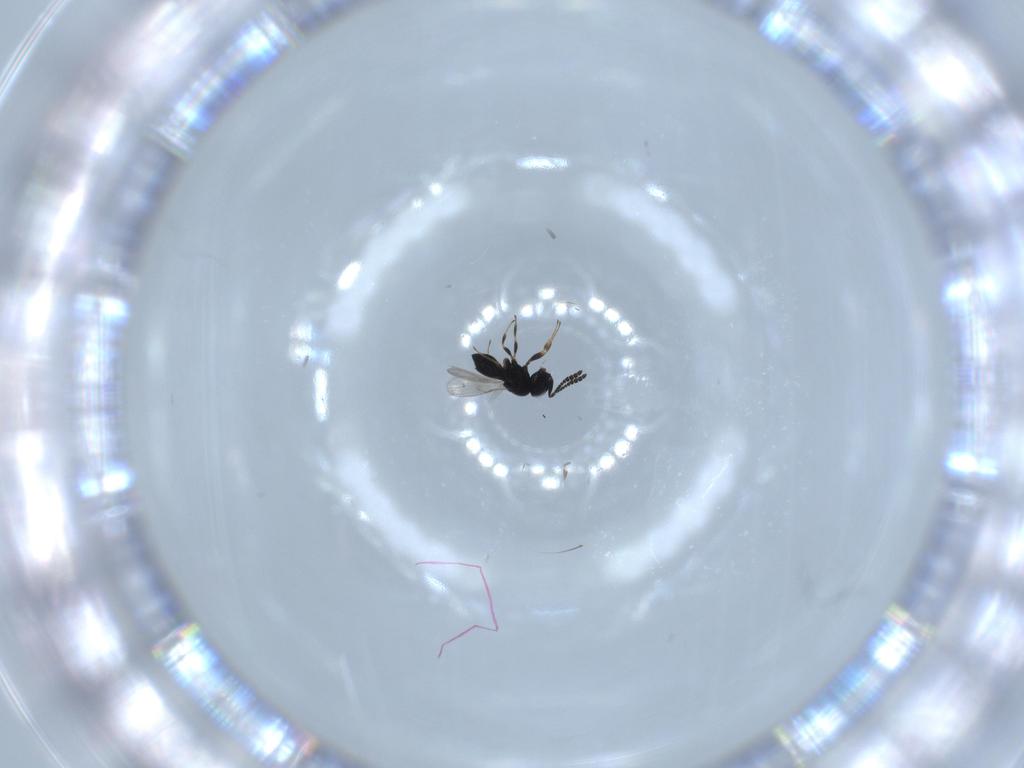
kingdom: Animalia
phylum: Arthropoda
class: Insecta
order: Hymenoptera
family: Scelionidae
